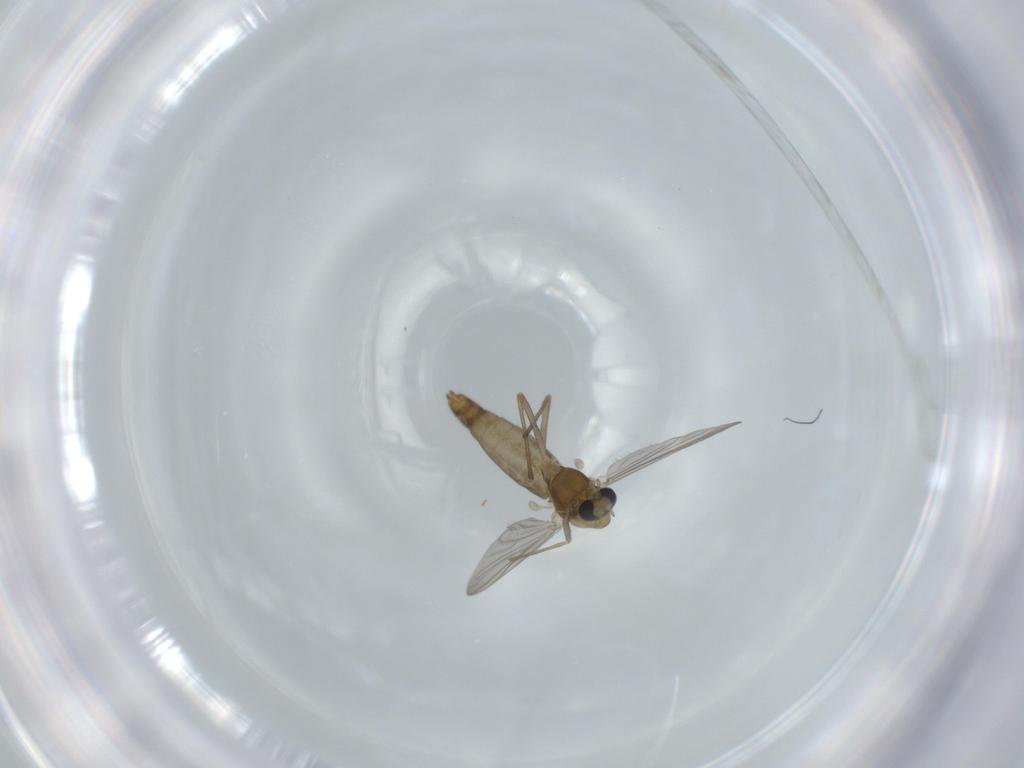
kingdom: Animalia
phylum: Arthropoda
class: Insecta
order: Diptera
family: Chironomidae
